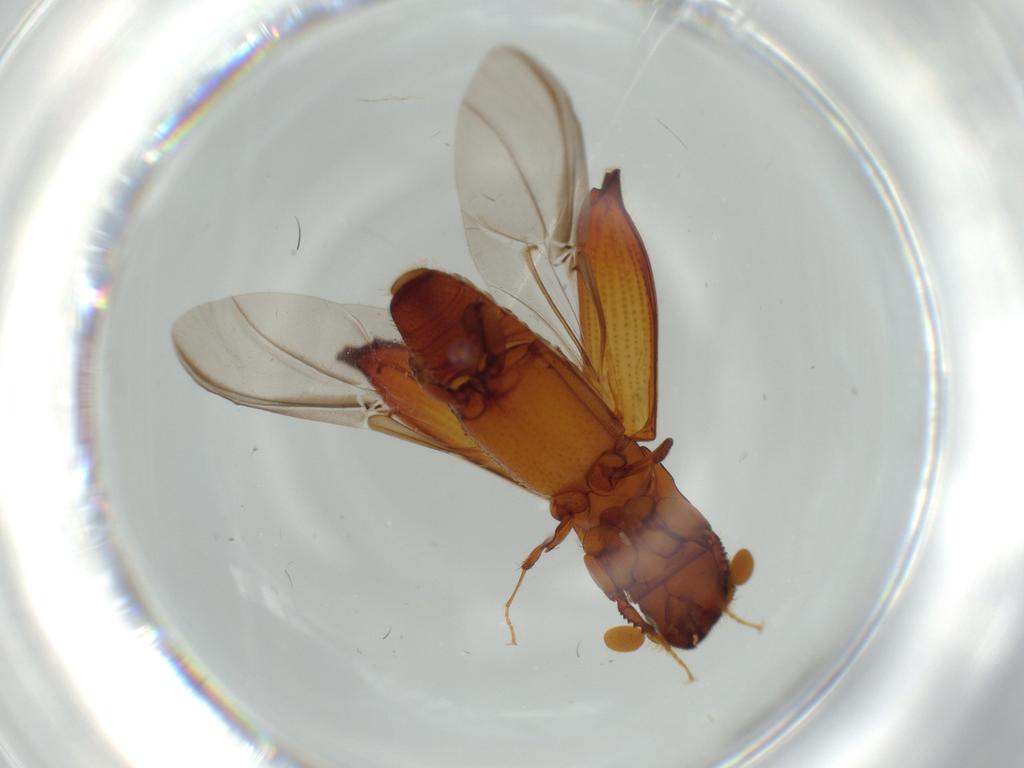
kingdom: Animalia
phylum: Arthropoda
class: Insecta
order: Coleoptera
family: Curculionidae
